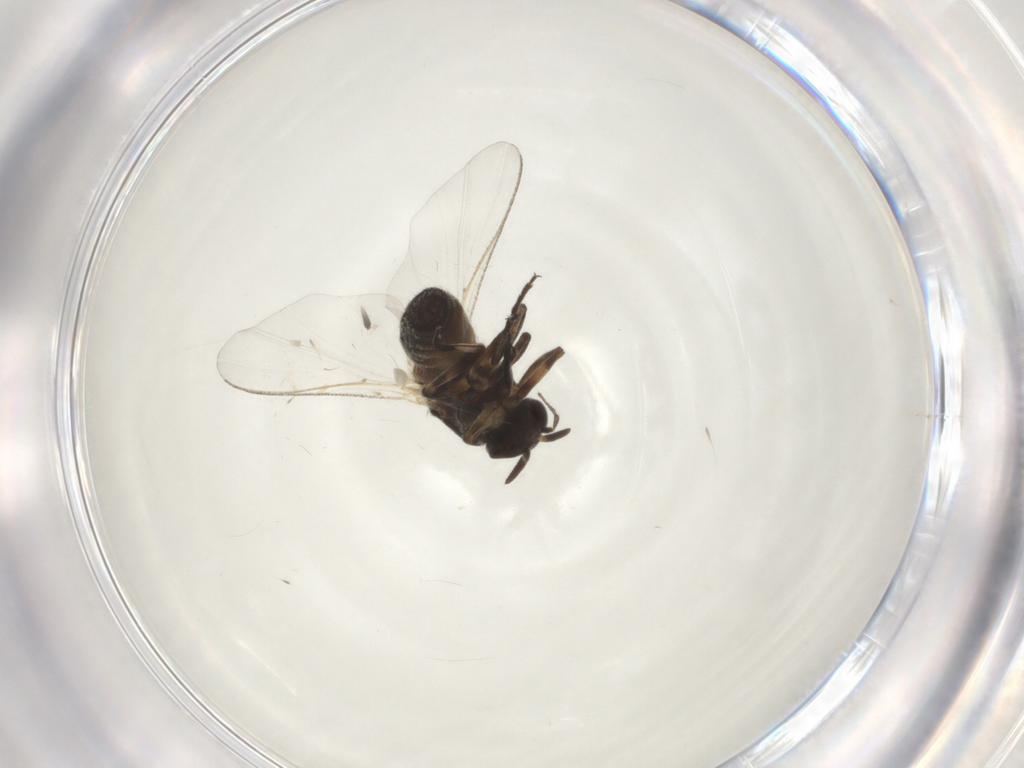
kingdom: Animalia
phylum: Arthropoda
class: Insecta
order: Diptera
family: Chironomidae
